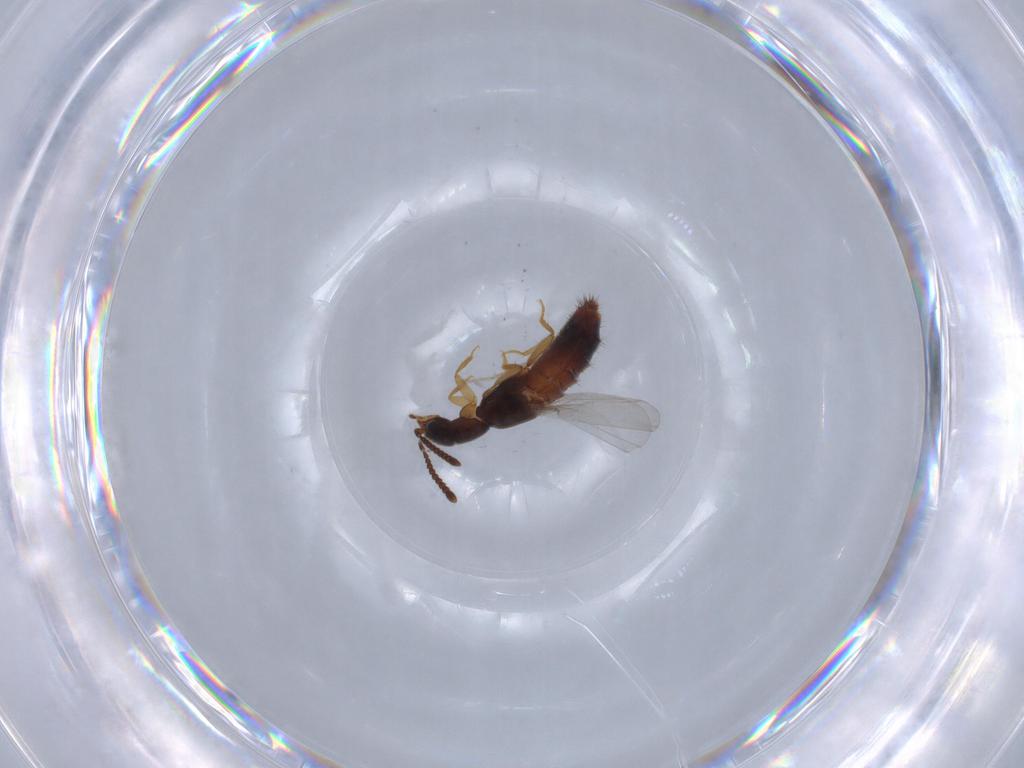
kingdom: Animalia
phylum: Arthropoda
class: Insecta
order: Coleoptera
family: Staphylinidae
